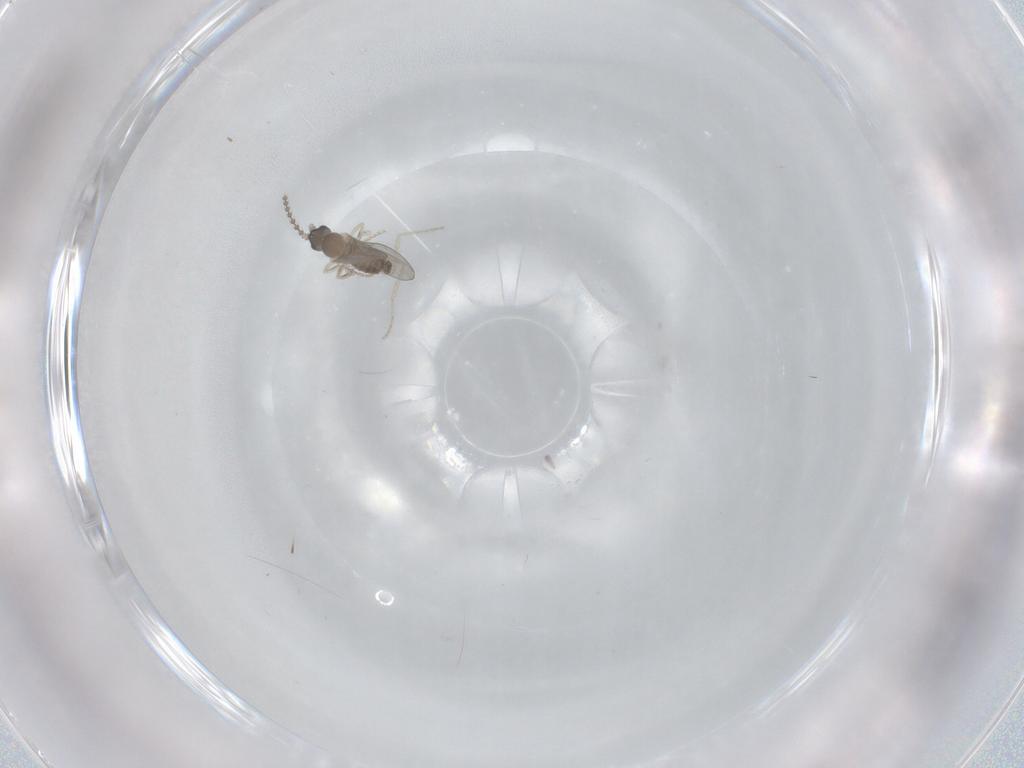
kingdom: Animalia
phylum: Arthropoda
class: Insecta
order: Diptera
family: Cecidomyiidae
